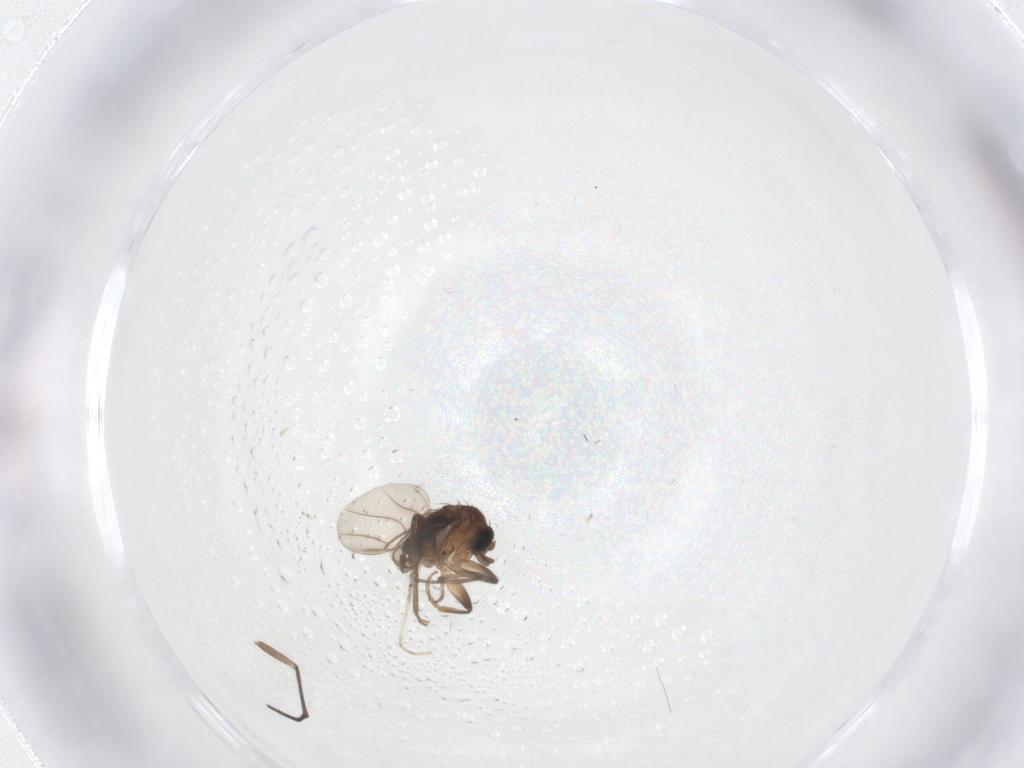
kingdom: Animalia
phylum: Arthropoda
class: Insecta
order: Diptera
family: Sciaridae
